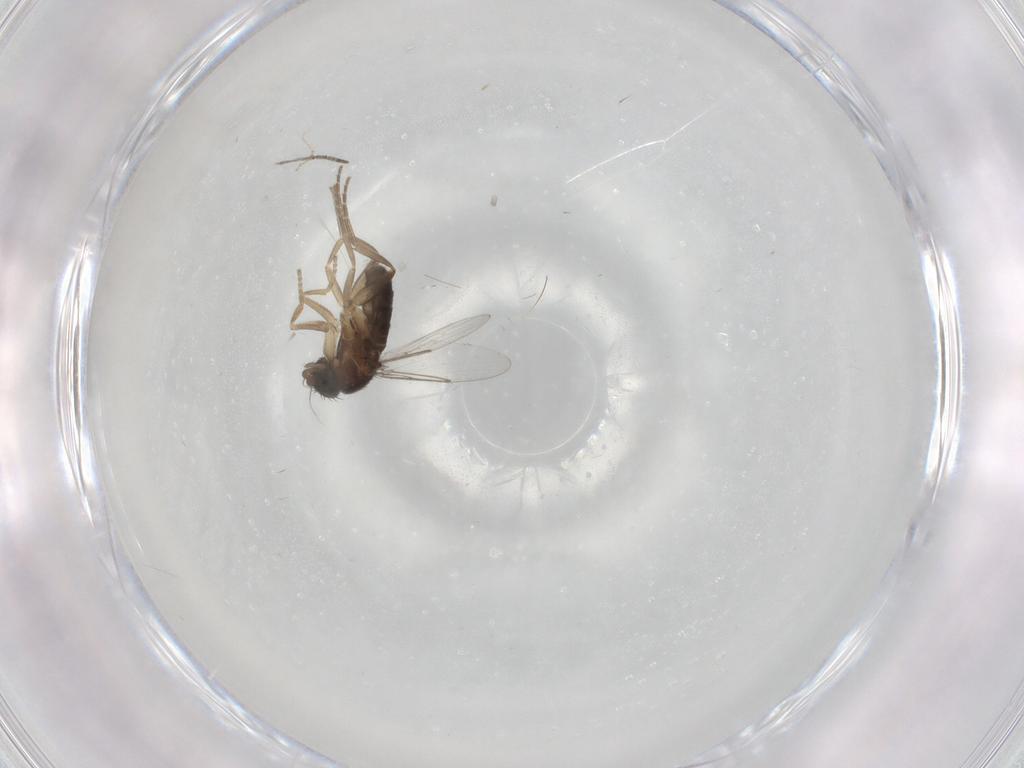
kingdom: Animalia
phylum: Arthropoda
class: Insecta
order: Diptera
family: Phoridae
